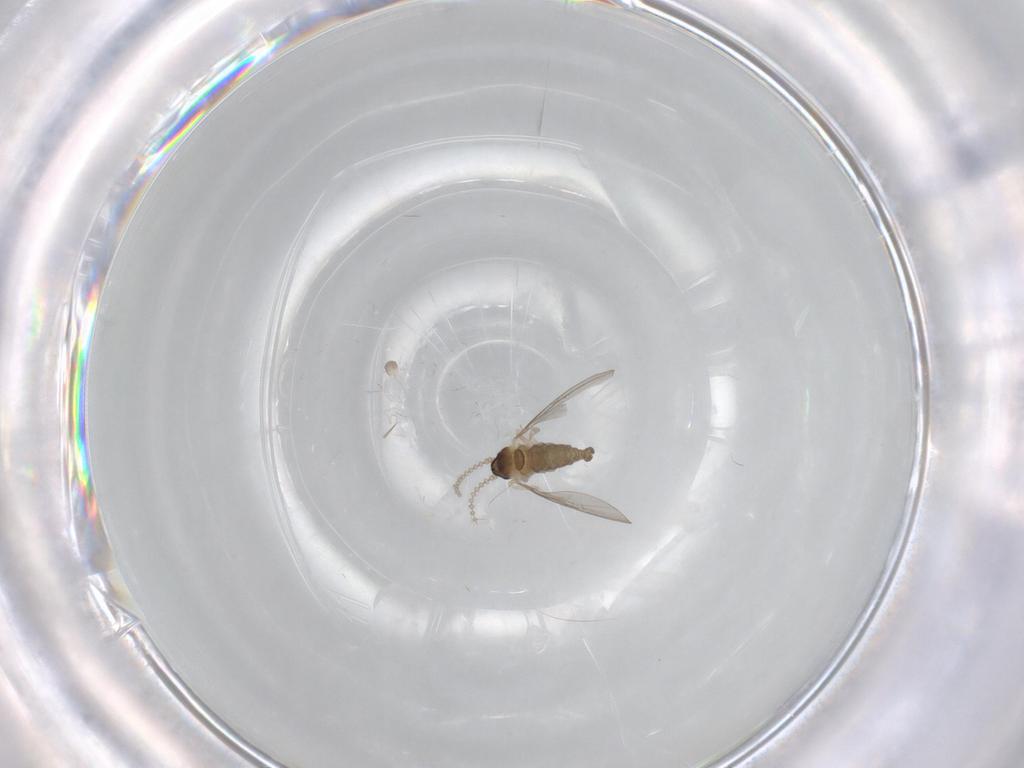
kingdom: Animalia
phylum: Arthropoda
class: Insecta
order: Diptera
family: Cecidomyiidae
